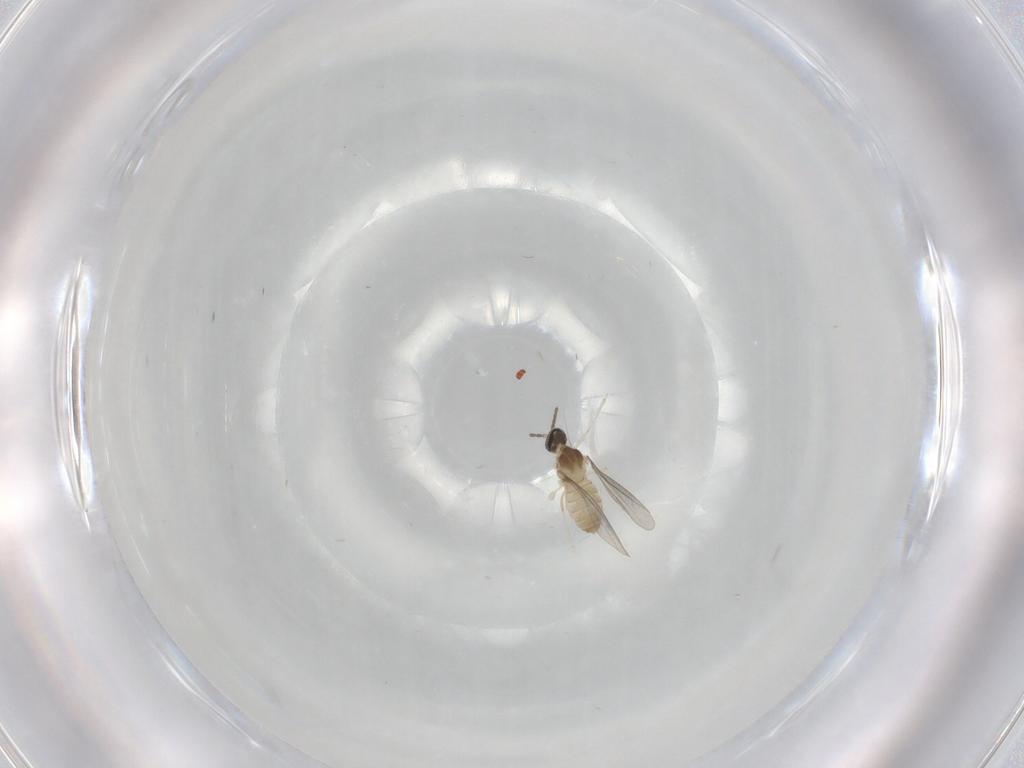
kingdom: Animalia
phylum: Arthropoda
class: Insecta
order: Diptera
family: Cecidomyiidae
